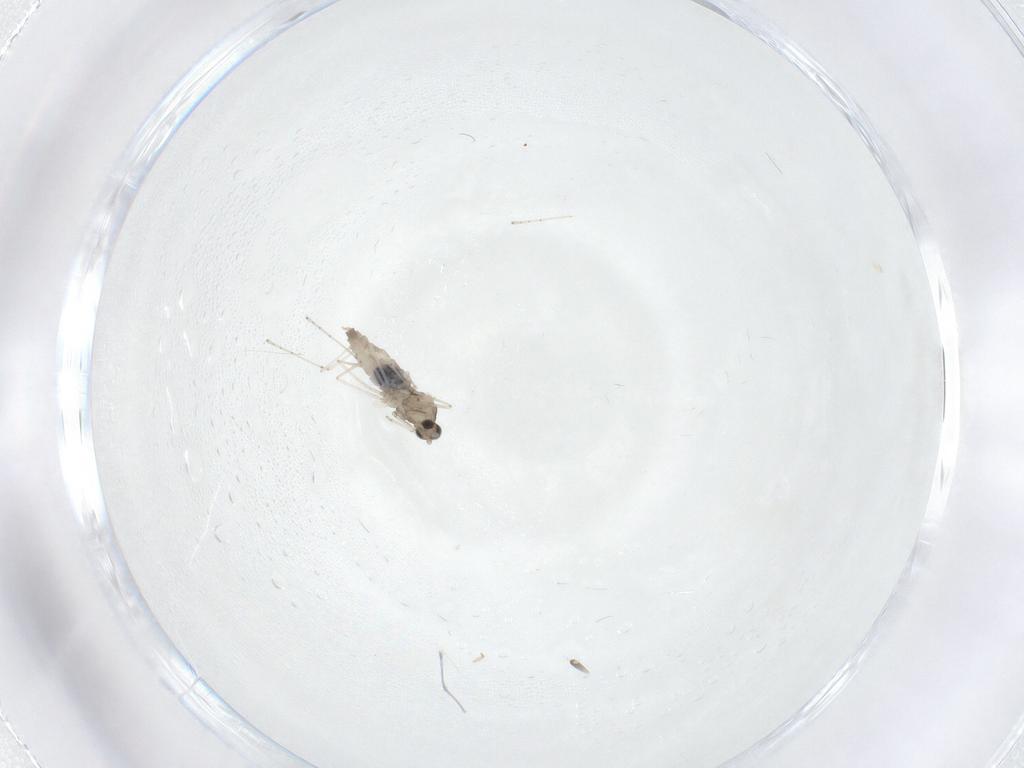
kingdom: Animalia
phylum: Arthropoda
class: Insecta
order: Diptera
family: Cecidomyiidae
